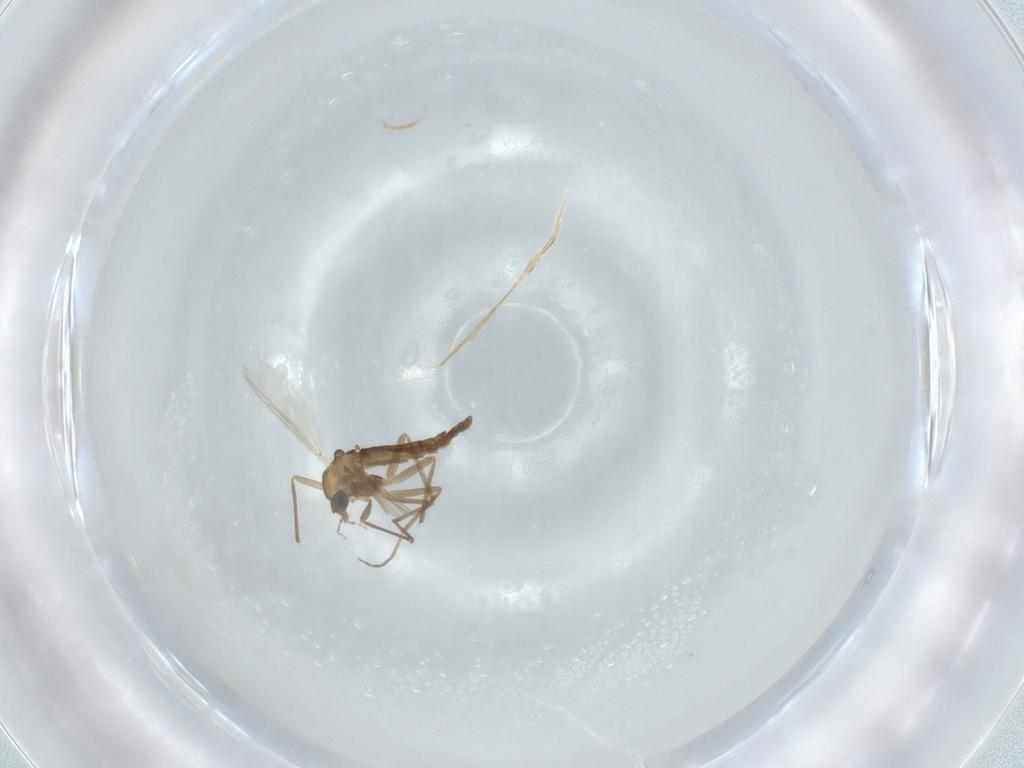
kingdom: Animalia
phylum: Arthropoda
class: Insecta
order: Diptera
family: Chironomidae
